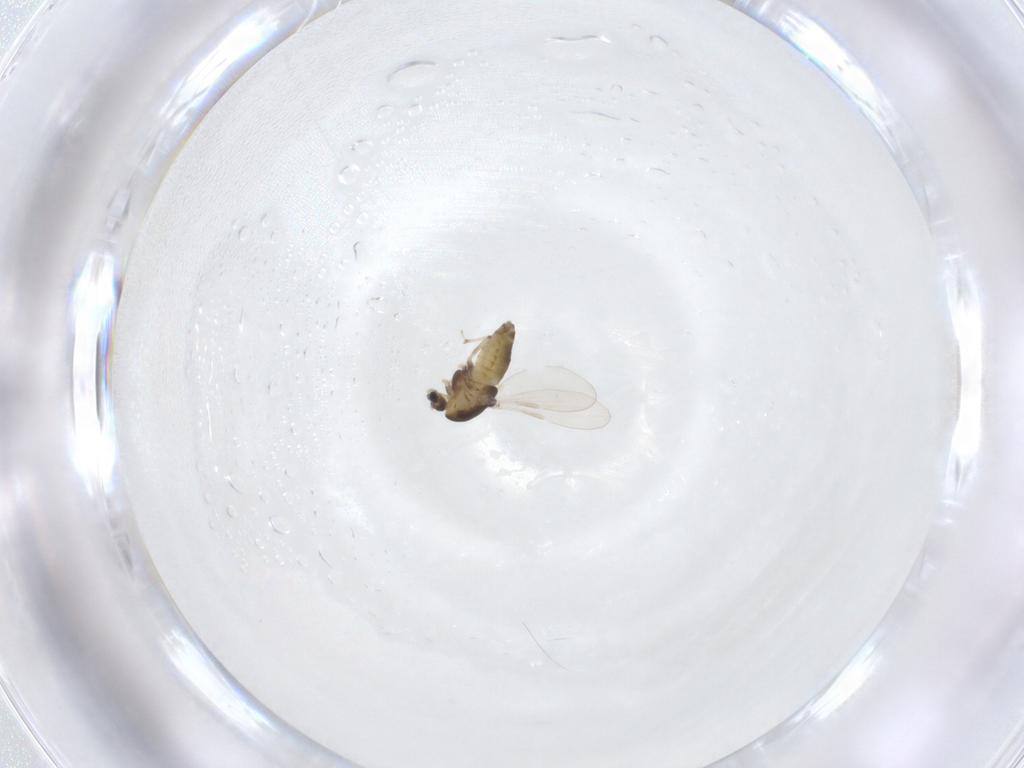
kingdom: Animalia
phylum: Arthropoda
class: Insecta
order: Diptera
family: Chironomidae
